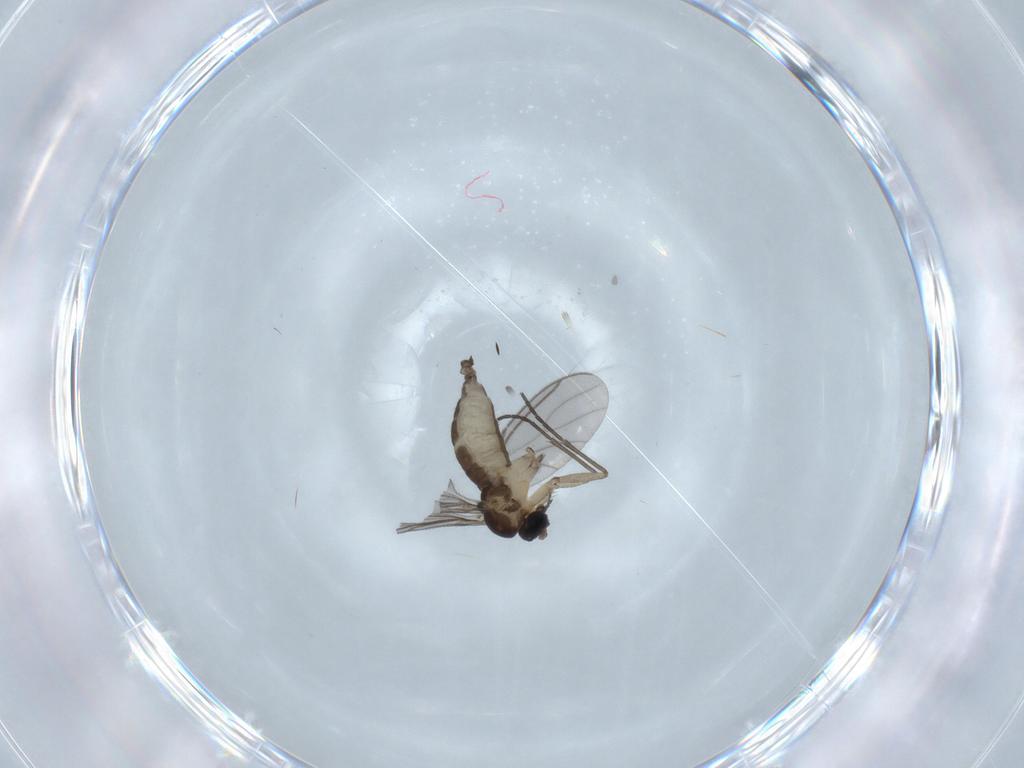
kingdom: Animalia
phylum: Arthropoda
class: Insecta
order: Diptera
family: Sciaridae
